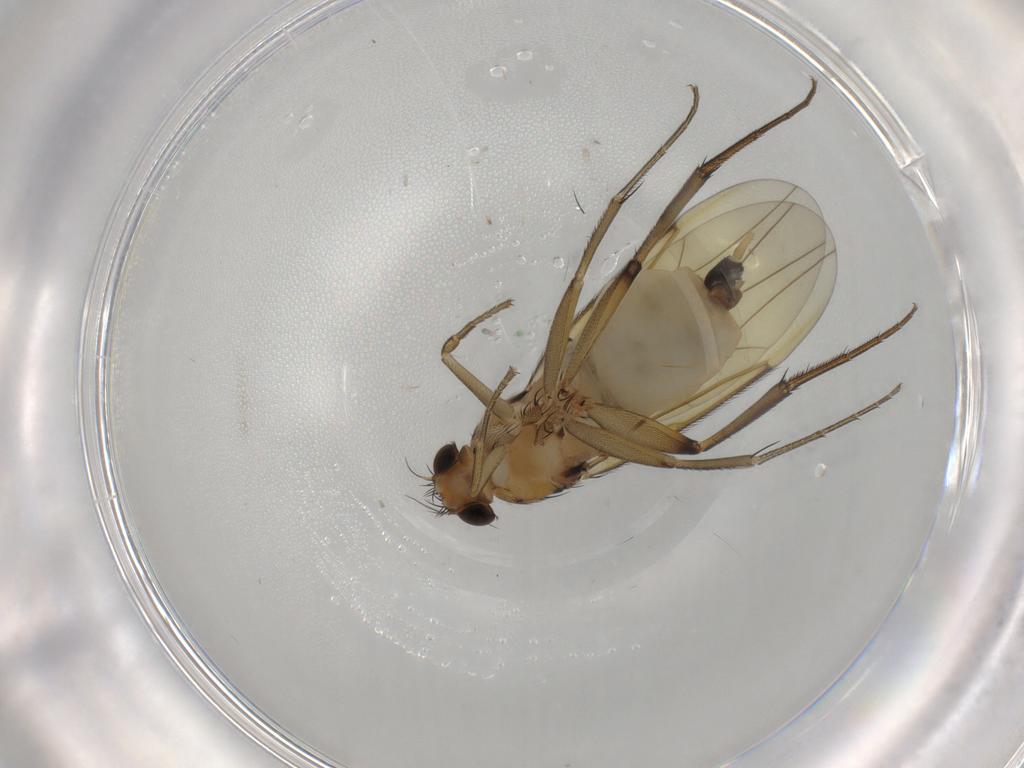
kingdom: Animalia
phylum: Arthropoda
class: Insecta
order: Diptera
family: Phoridae
